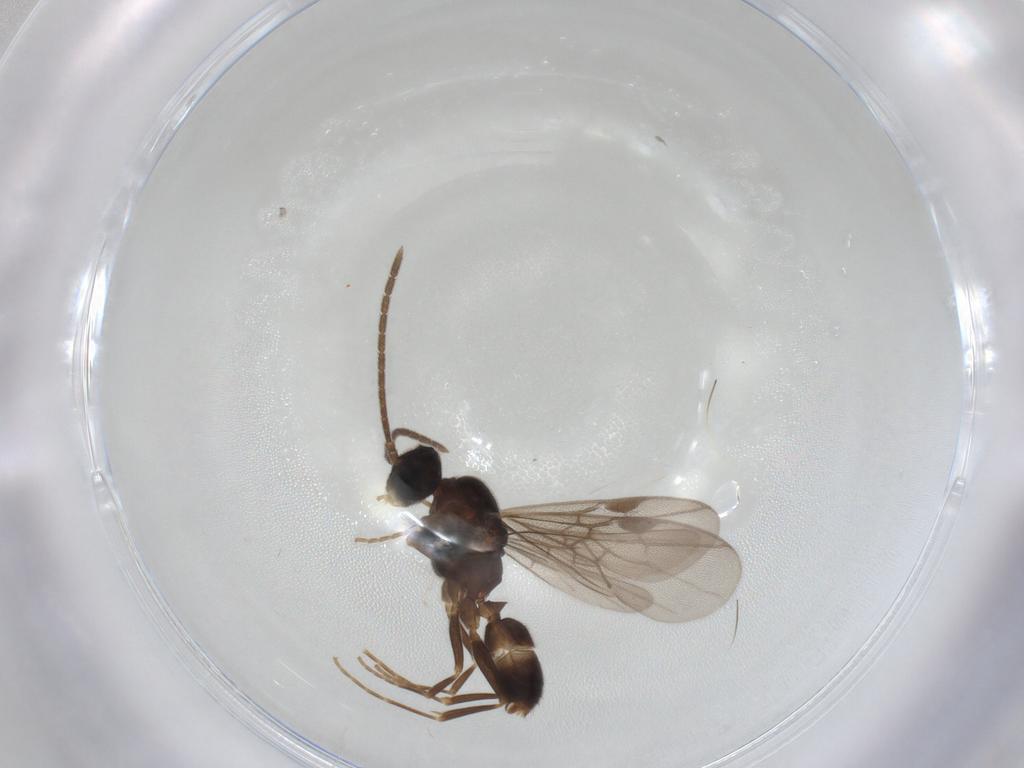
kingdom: Animalia
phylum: Arthropoda
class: Insecta
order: Hymenoptera
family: Formicidae
